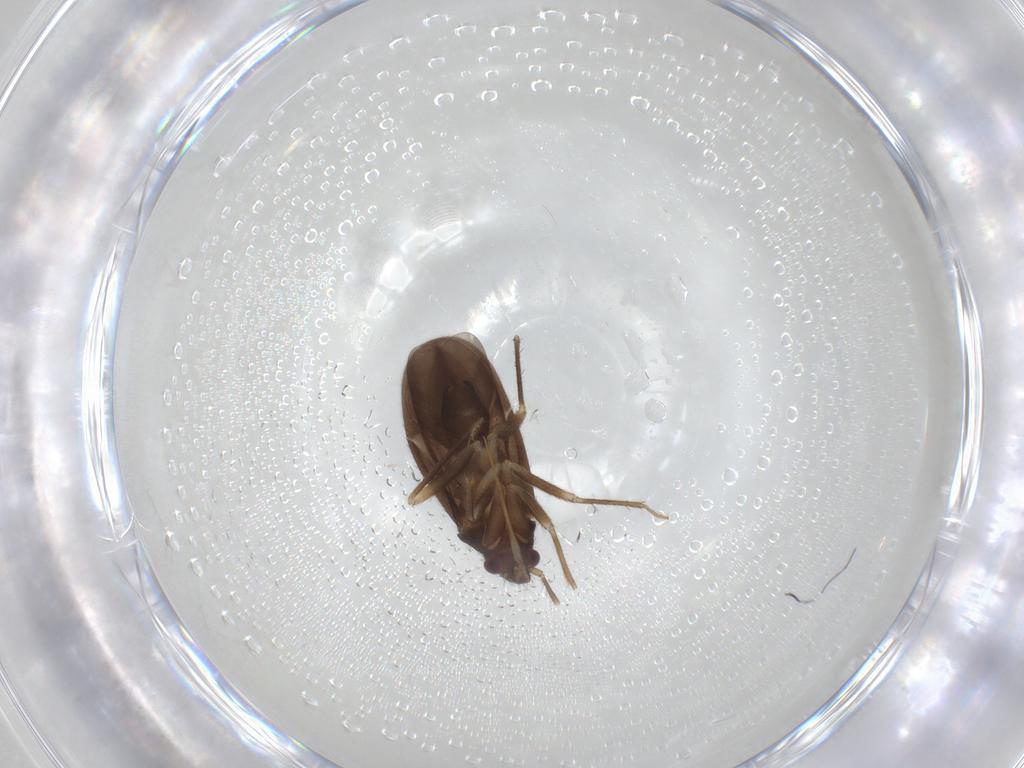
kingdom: Animalia
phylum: Arthropoda
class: Insecta
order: Hemiptera
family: Ceratocombidae
